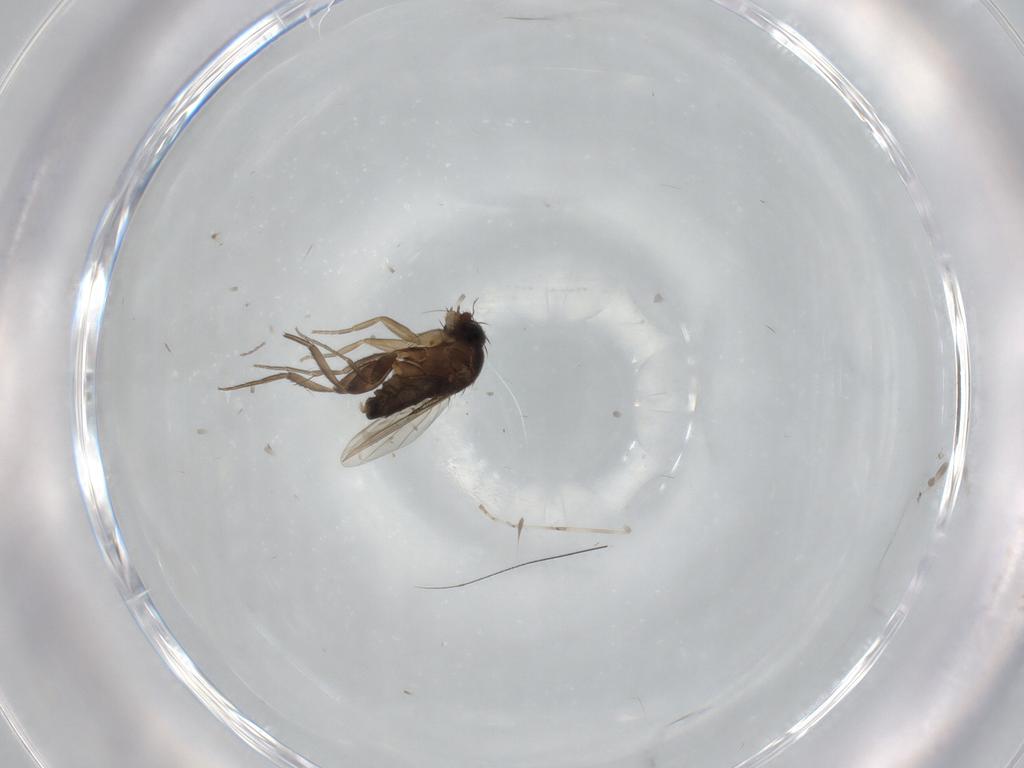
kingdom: Animalia
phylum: Arthropoda
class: Insecta
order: Diptera
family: Phoridae
